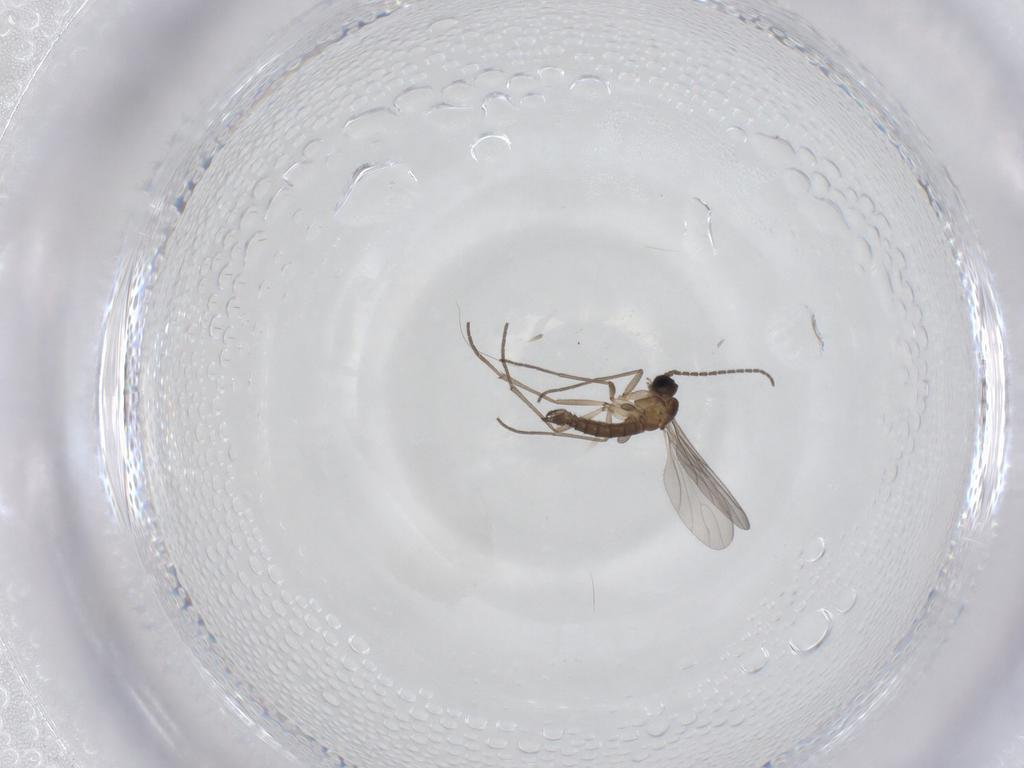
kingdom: Animalia
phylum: Arthropoda
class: Insecta
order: Diptera
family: Sciaridae
